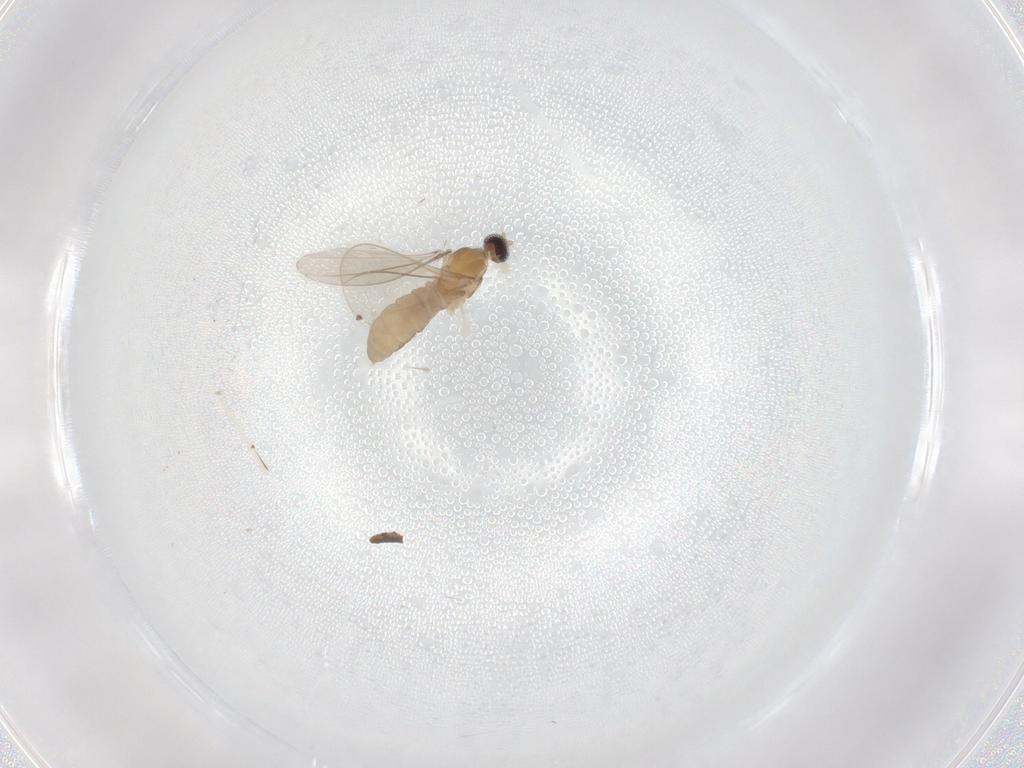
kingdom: Animalia
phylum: Arthropoda
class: Insecta
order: Diptera
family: Cecidomyiidae
